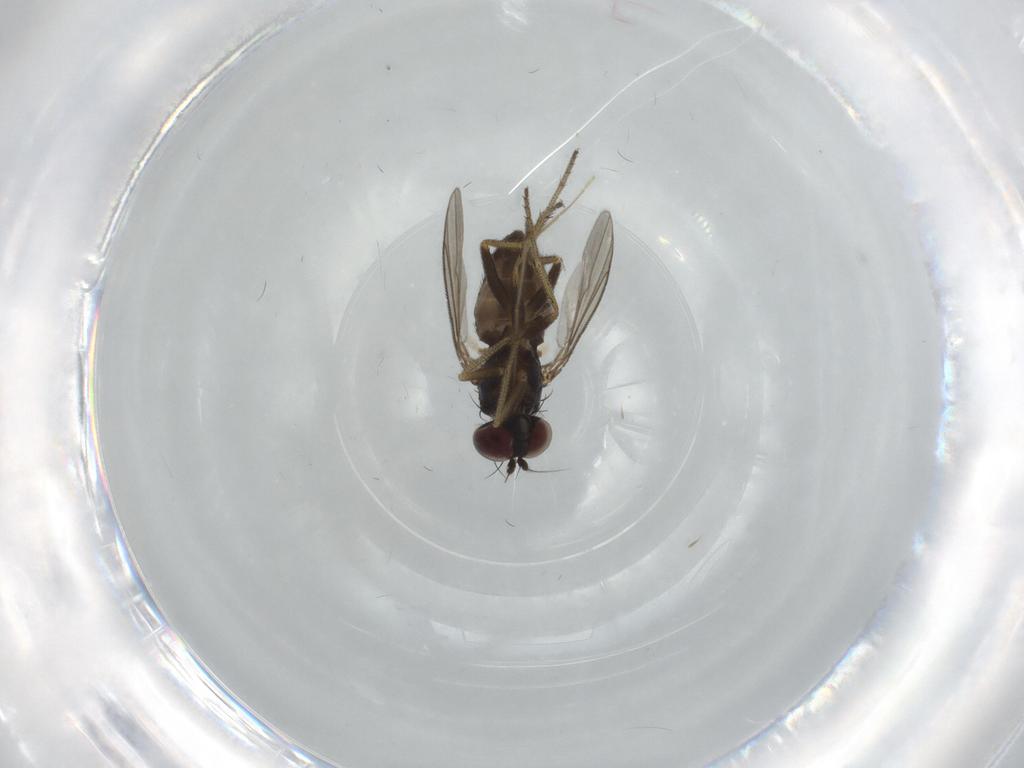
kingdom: Animalia
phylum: Arthropoda
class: Insecta
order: Diptera
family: Chironomidae
